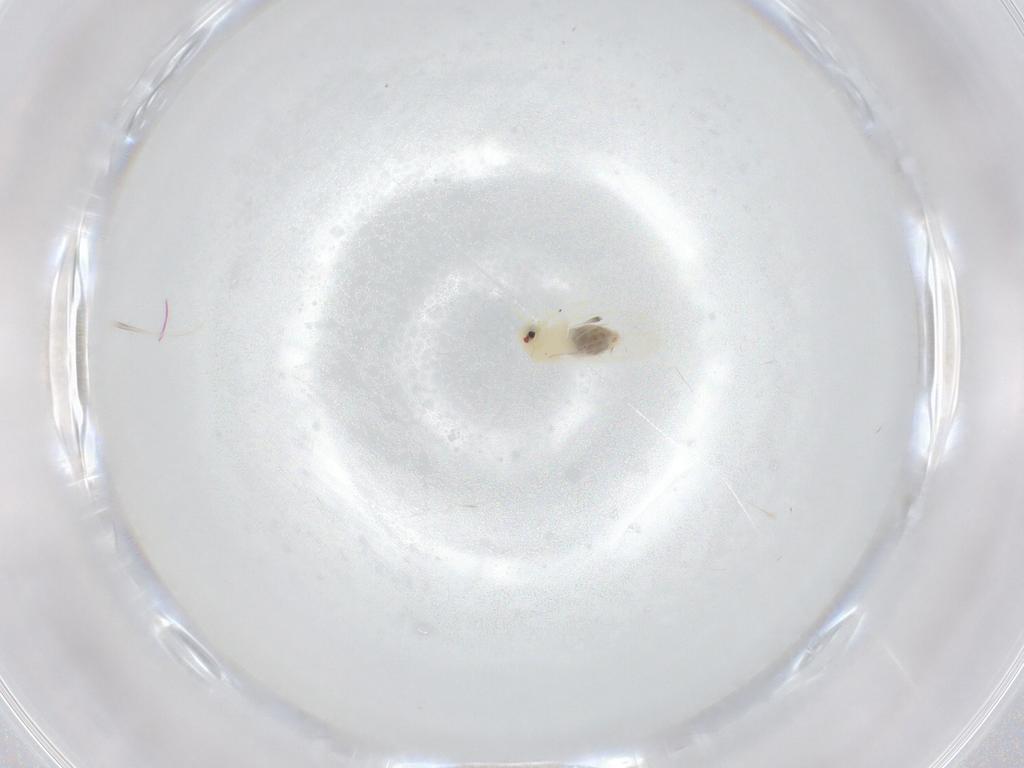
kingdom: Animalia
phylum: Arthropoda
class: Insecta
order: Hemiptera
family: Aleyrodidae
